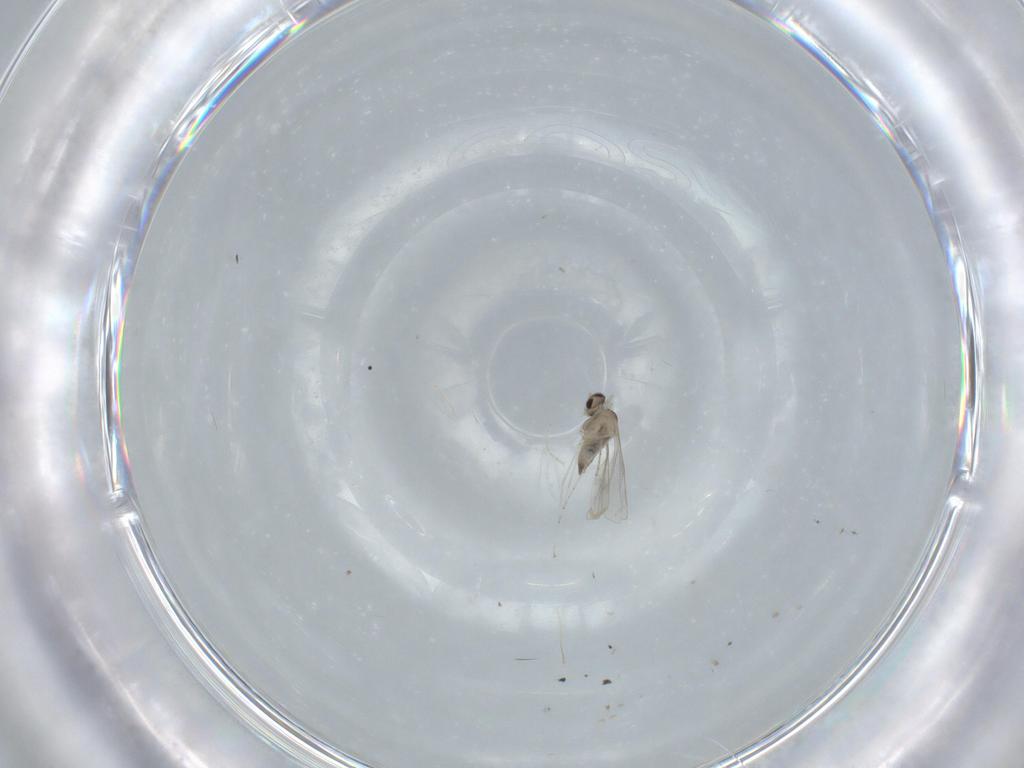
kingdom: Animalia
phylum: Arthropoda
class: Insecta
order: Diptera
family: Cecidomyiidae
